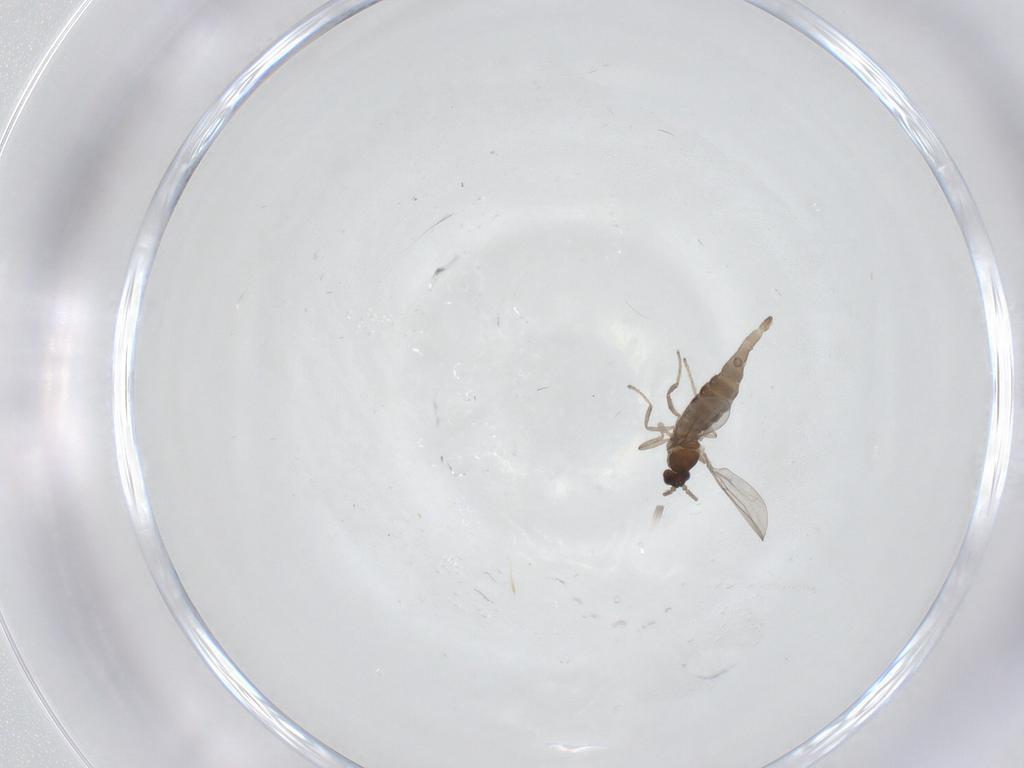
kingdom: Animalia
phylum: Arthropoda
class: Insecta
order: Diptera
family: Cecidomyiidae
